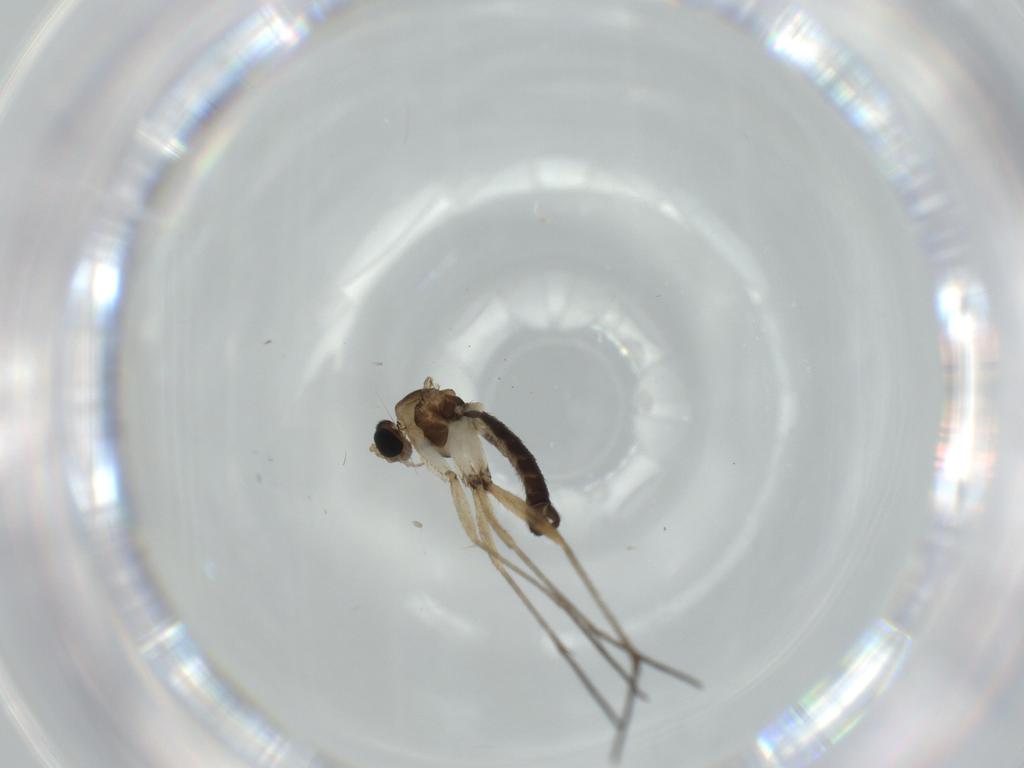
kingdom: Animalia
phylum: Arthropoda
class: Insecta
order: Diptera
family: Sciaridae
